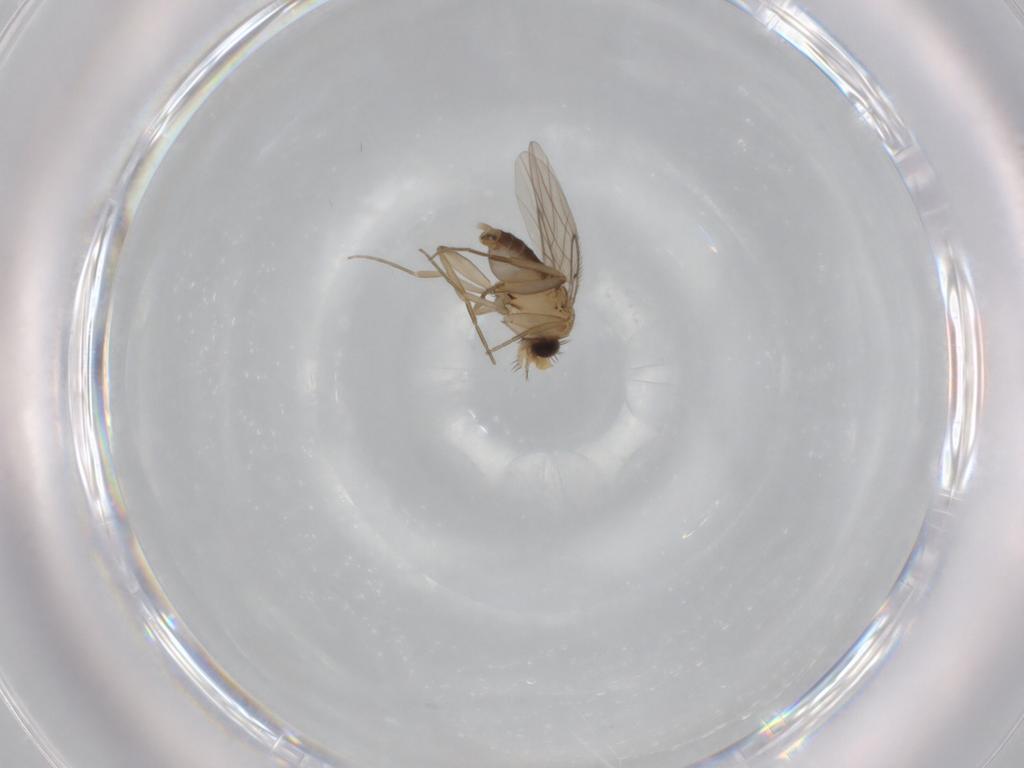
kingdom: Animalia
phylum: Arthropoda
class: Insecta
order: Diptera
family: Phoridae
